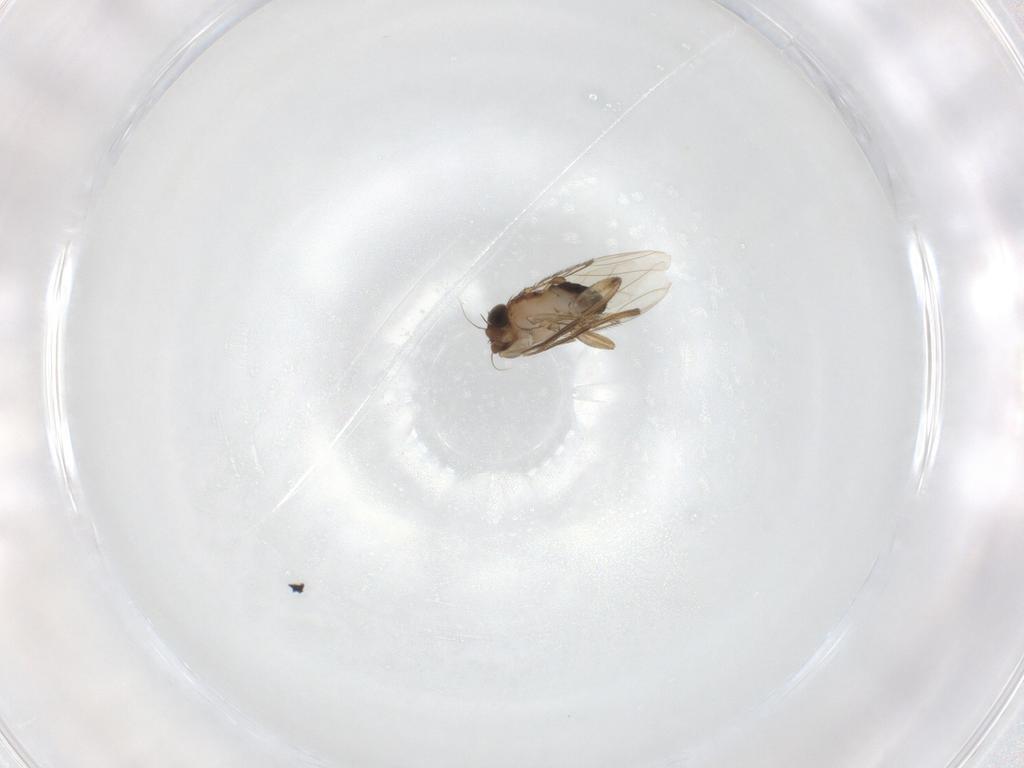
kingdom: Animalia
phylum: Arthropoda
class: Insecta
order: Diptera
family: Phoridae
